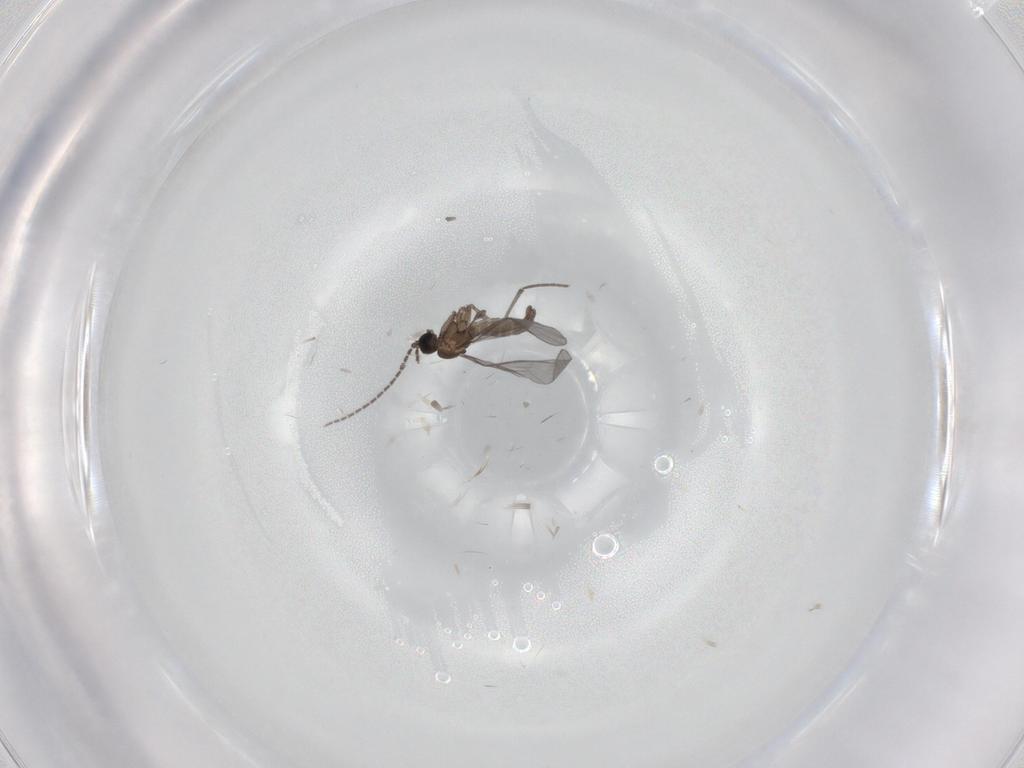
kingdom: Animalia
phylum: Arthropoda
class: Insecta
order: Diptera
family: Sciaridae
